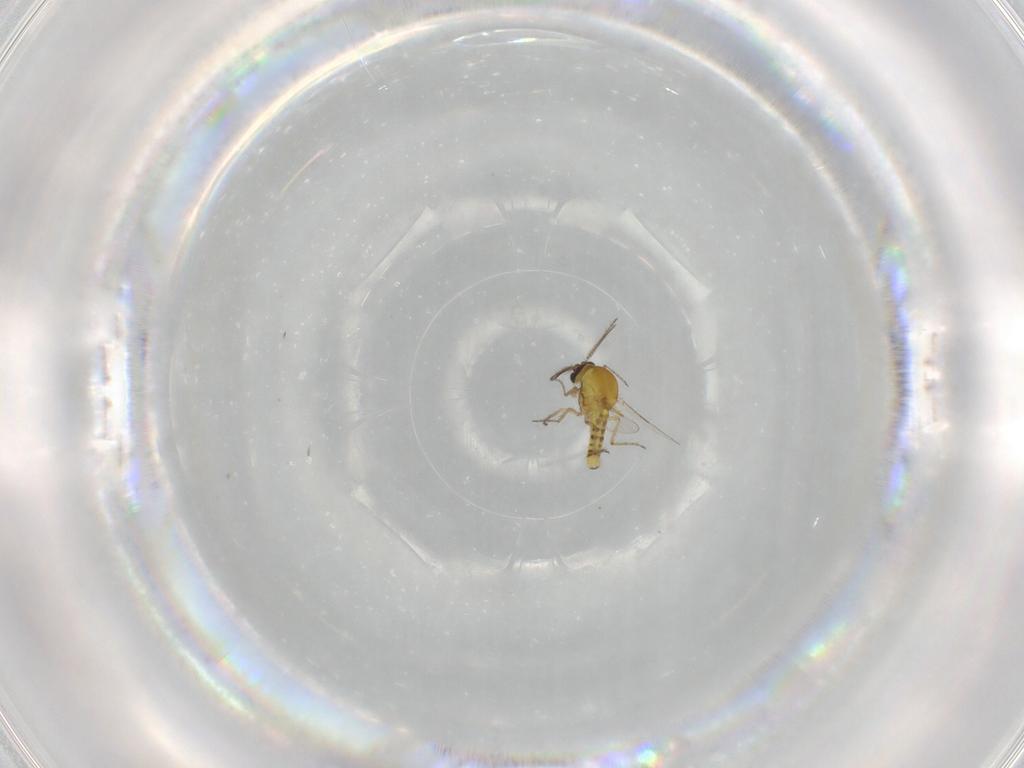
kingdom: Animalia
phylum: Arthropoda
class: Insecta
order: Diptera
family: Ceratopogonidae
